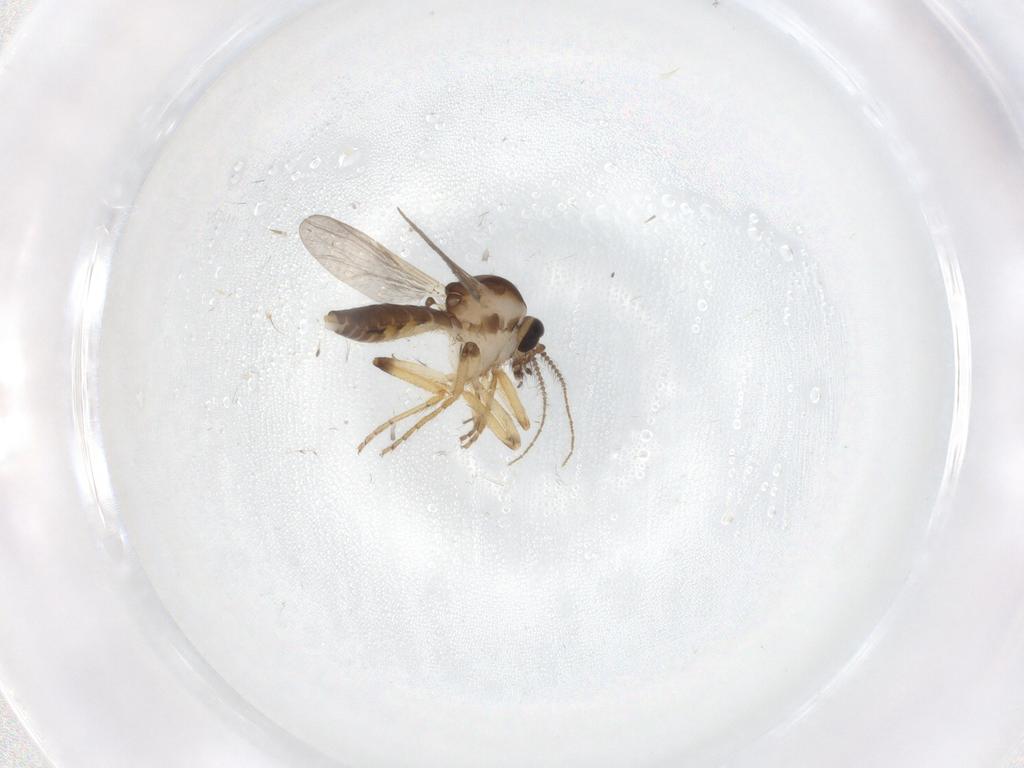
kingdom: Animalia
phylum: Arthropoda
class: Insecta
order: Diptera
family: Ceratopogonidae
